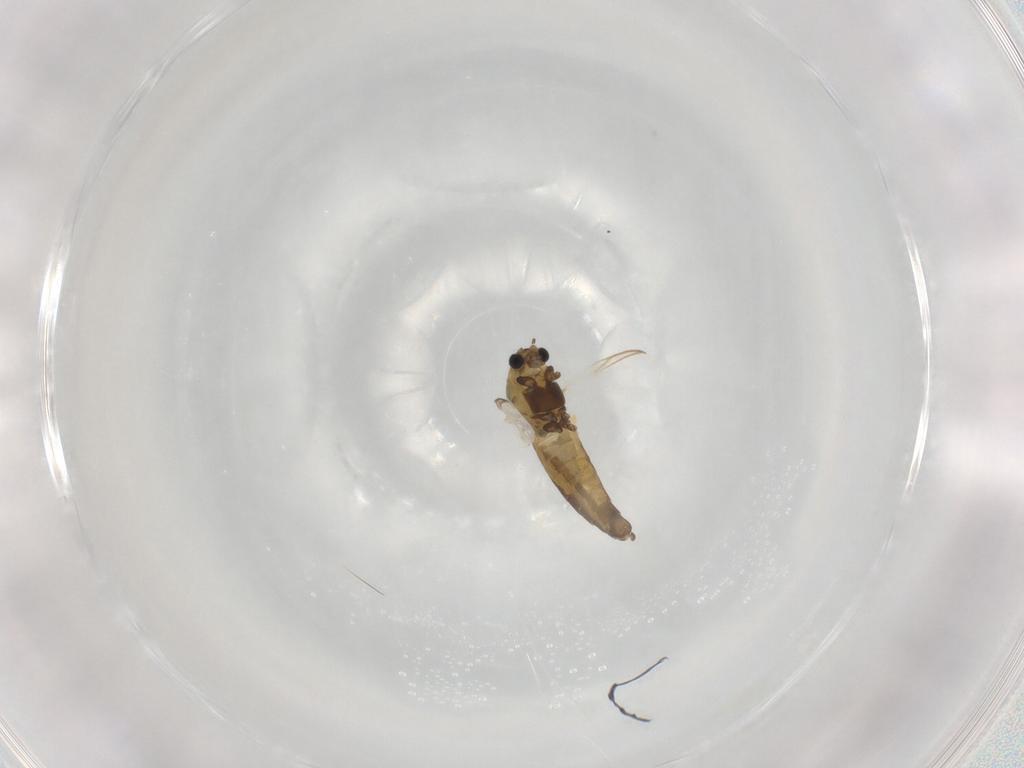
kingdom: Animalia
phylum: Arthropoda
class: Insecta
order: Diptera
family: Chironomidae
